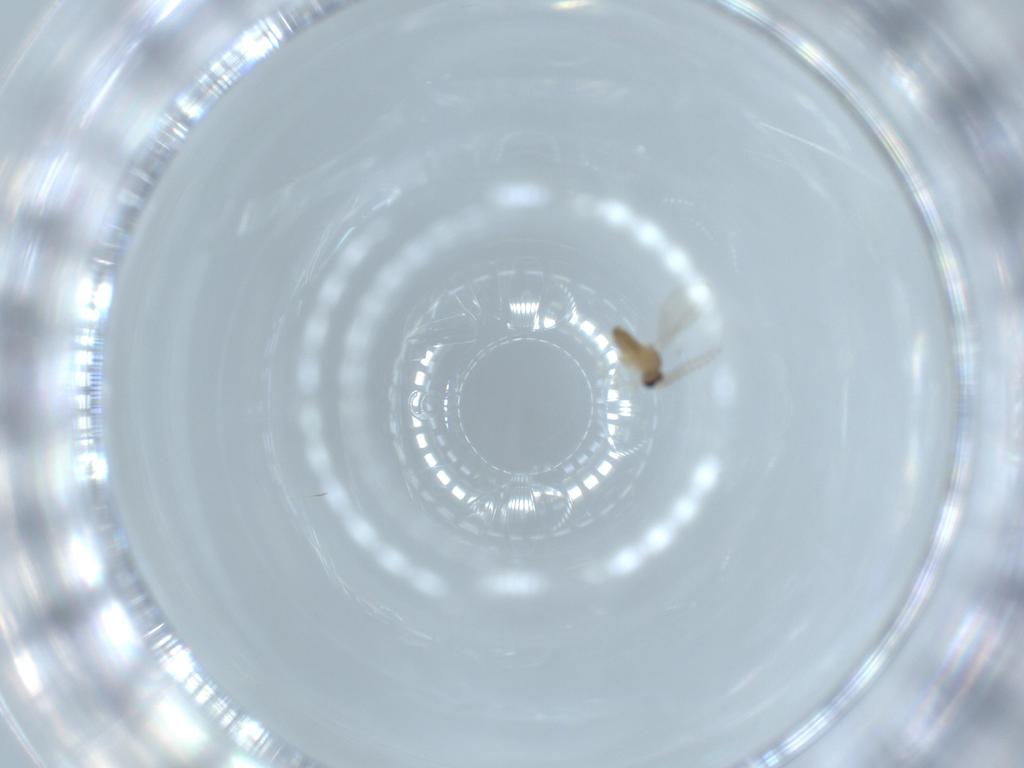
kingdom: Animalia
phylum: Arthropoda
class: Insecta
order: Diptera
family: Cecidomyiidae
